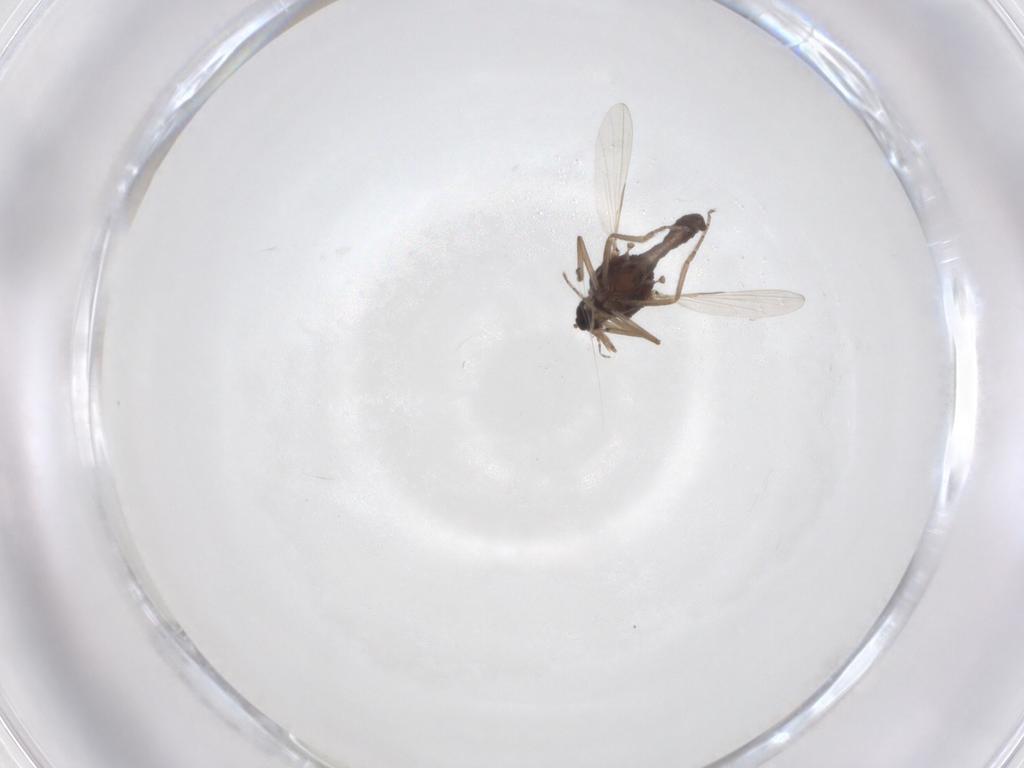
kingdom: Animalia
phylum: Arthropoda
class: Insecta
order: Diptera
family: Ceratopogonidae
